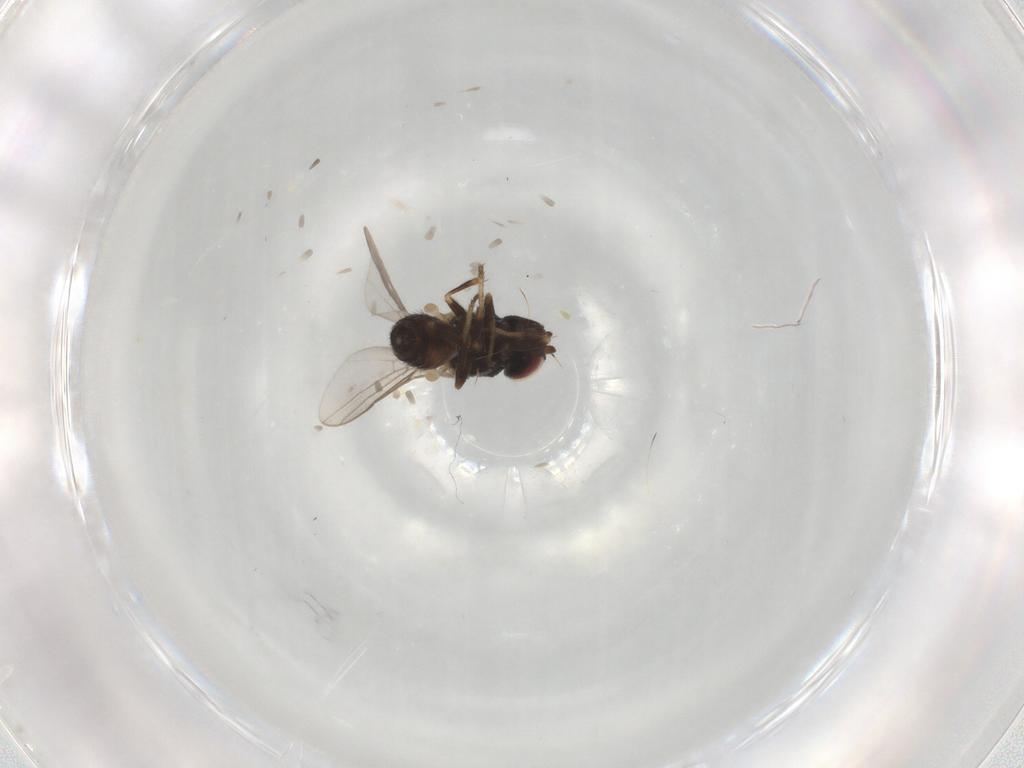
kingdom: Animalia
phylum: Arthropoda
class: Insecta
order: Diptera
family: Chloropidae
